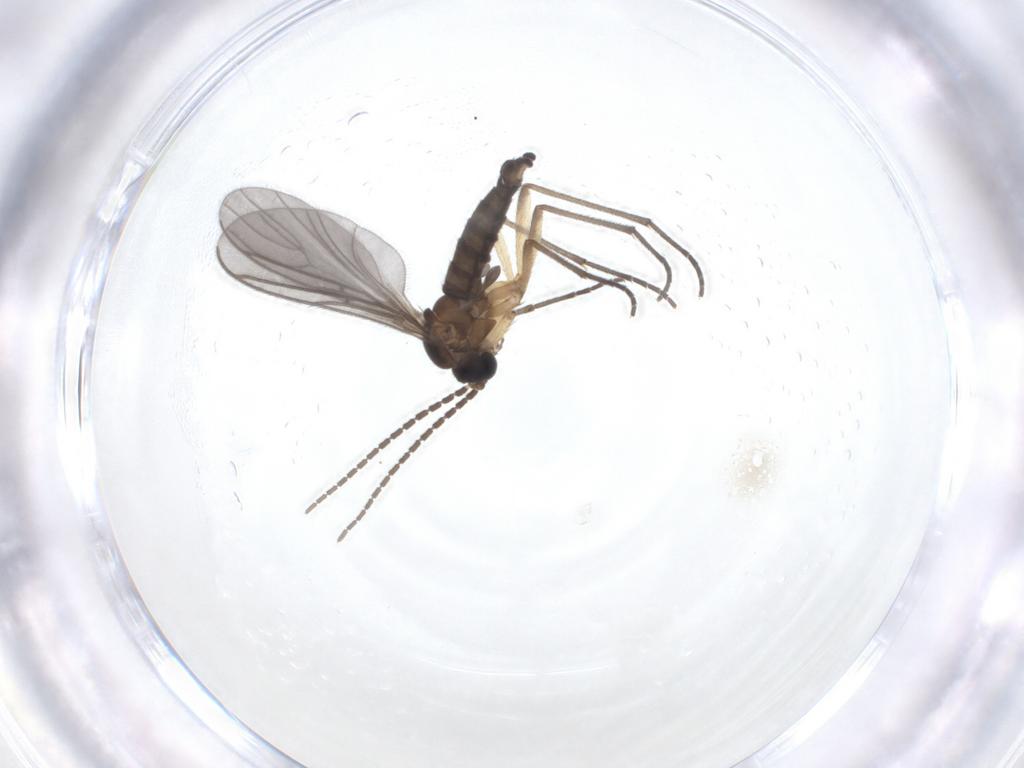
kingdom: Animalia
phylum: Arthropoda
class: Insecta
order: Diptera
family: Sciaridae
